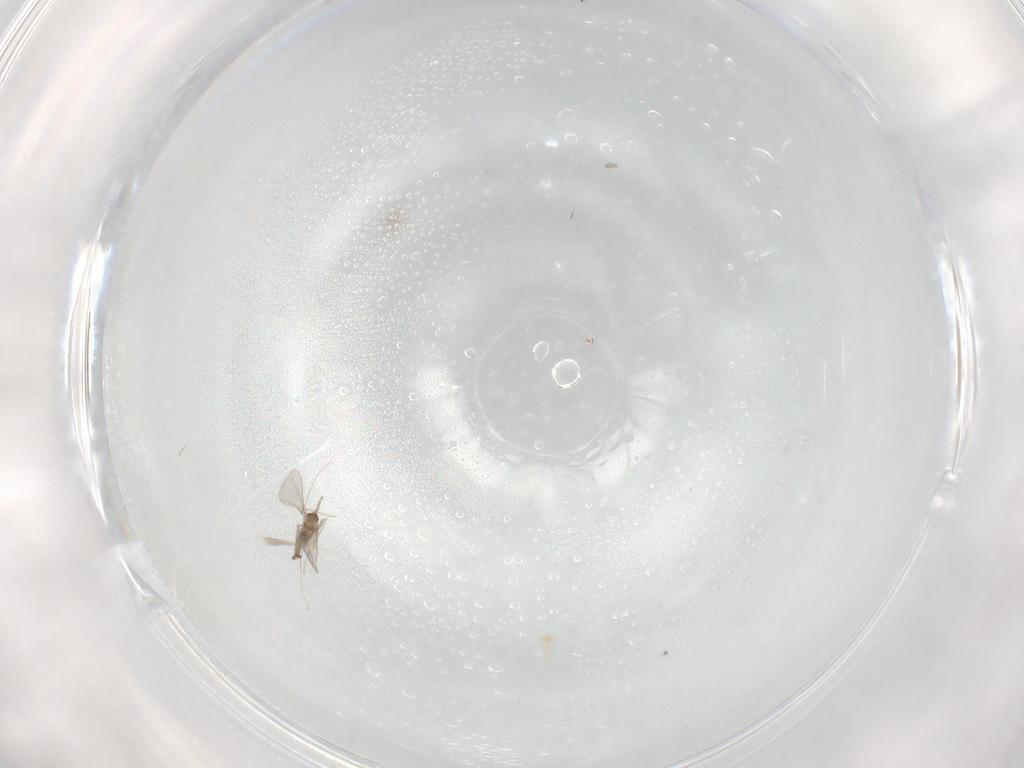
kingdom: Animalia
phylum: Arthropoda
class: Insecta
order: Diptera
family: Cecidomyiidae
